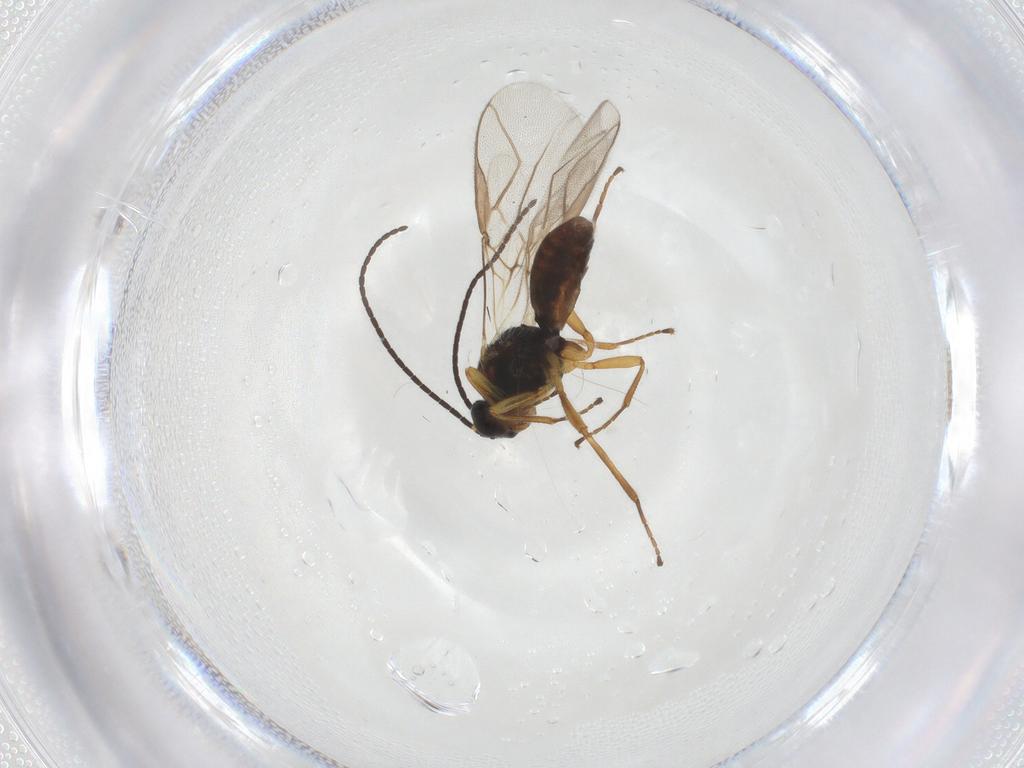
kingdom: Animalia
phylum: Arthropoda
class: Insecta
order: Hymenoptera
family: Braconidae
